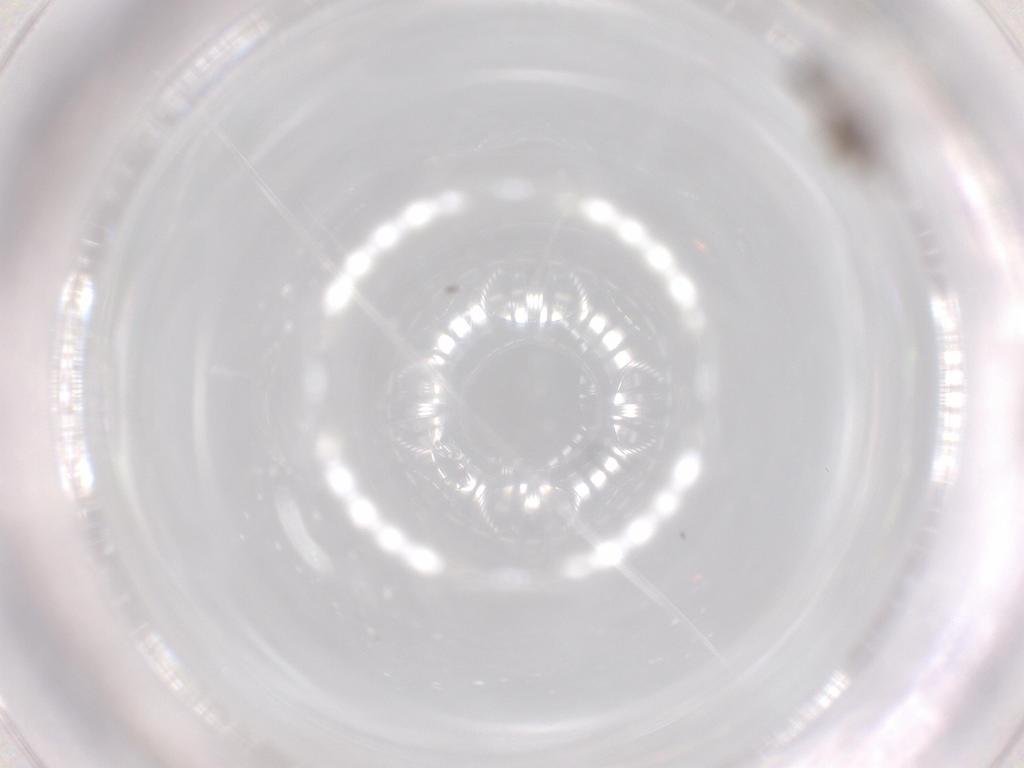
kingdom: Animalia
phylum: Arthropoda
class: Insecta
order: Diptera
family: Sciaridae
